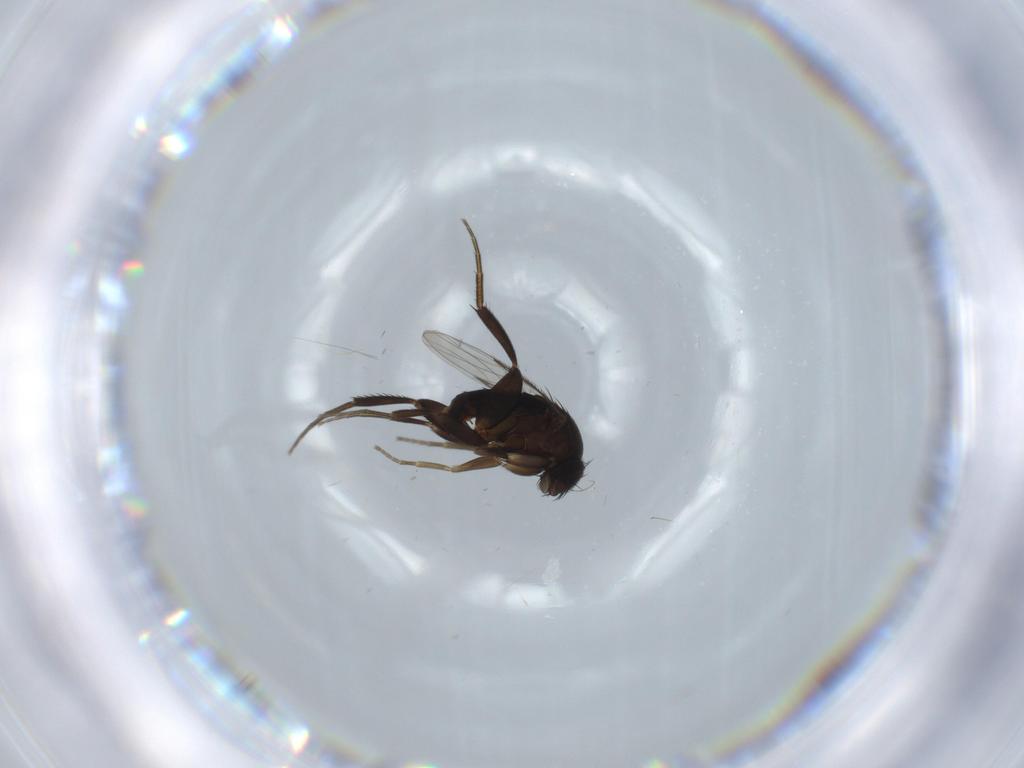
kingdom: Animalia
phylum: Arthropoda
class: Insecta
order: Diptera
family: Phoridae
